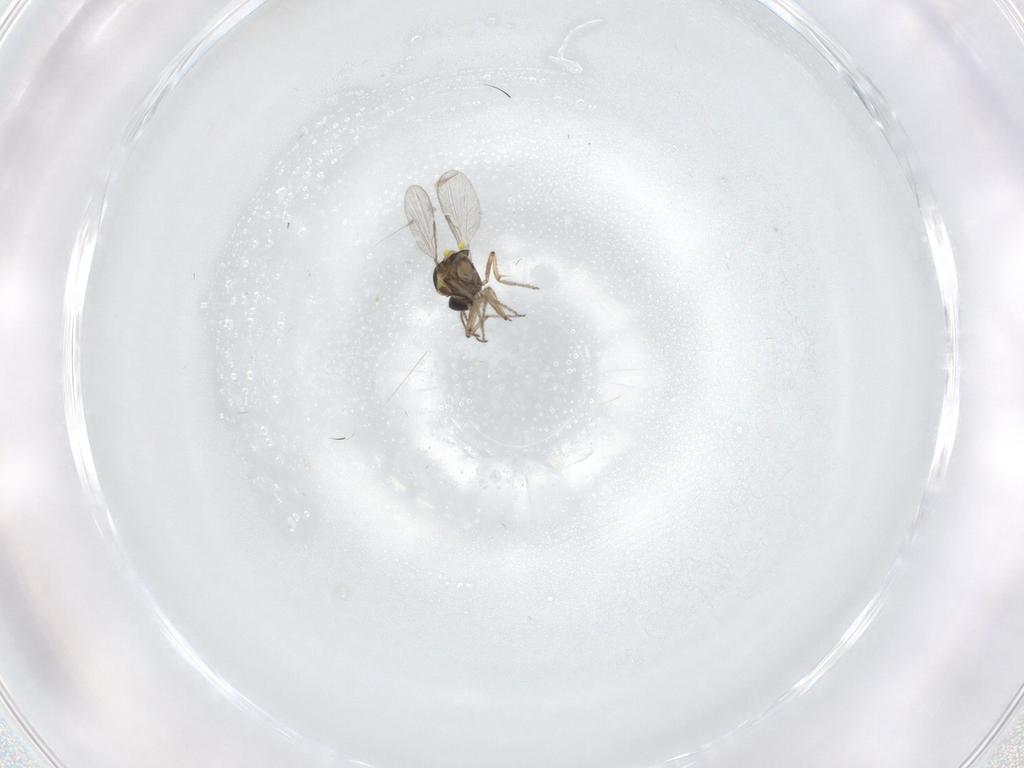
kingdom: Animalia
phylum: Arthropoda
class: Insecta
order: Diptera
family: Ceratopogonidae
